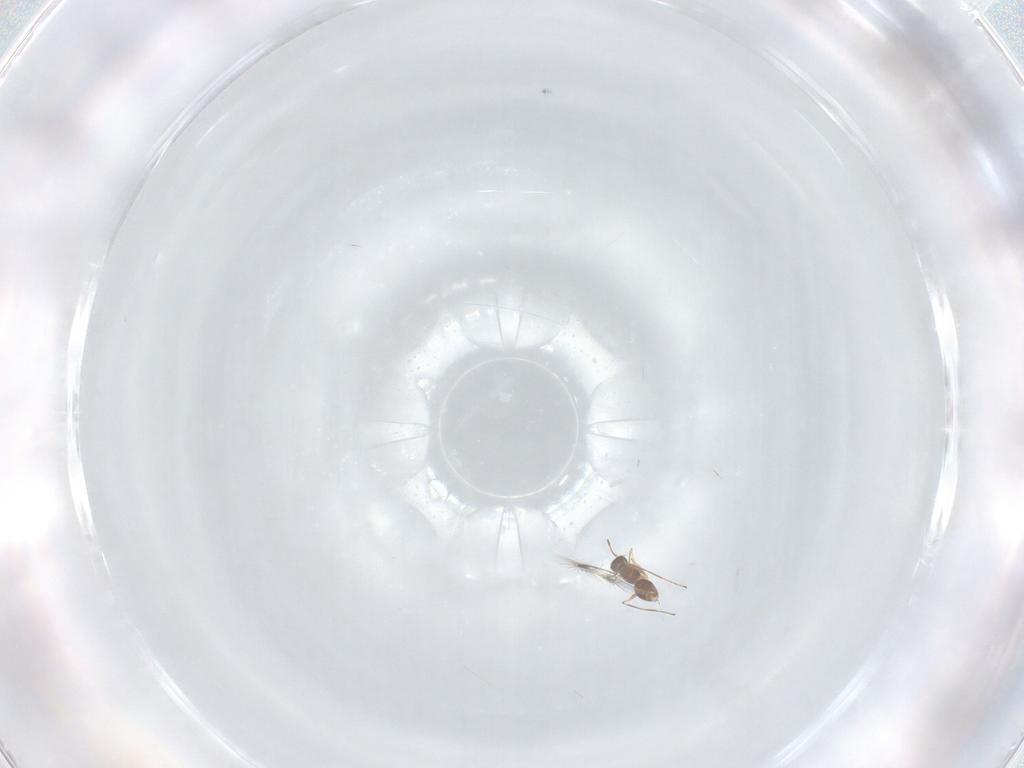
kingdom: Animalia
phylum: Arthropoda
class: Insecta
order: Hymenoptera
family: Mymaridae
